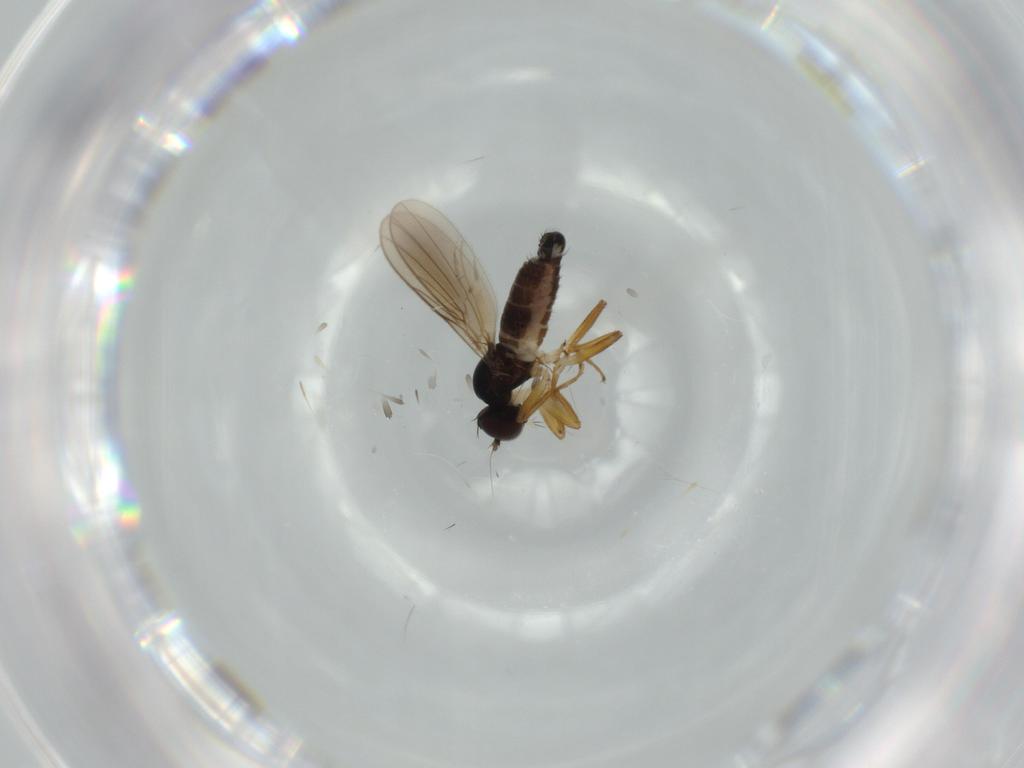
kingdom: Animalia
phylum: Arthropoda
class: Insecta
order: Diptera
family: Hybotidae
